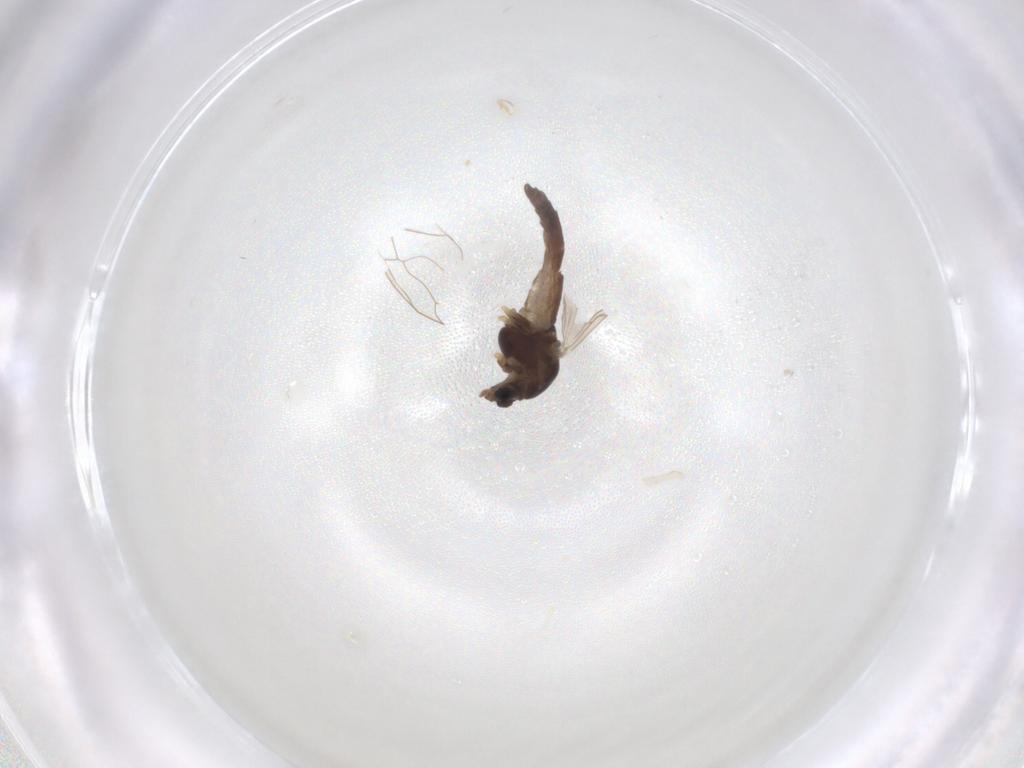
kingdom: Animalia
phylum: Arthropoda
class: Insecta
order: Diptera
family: Chironomidae
